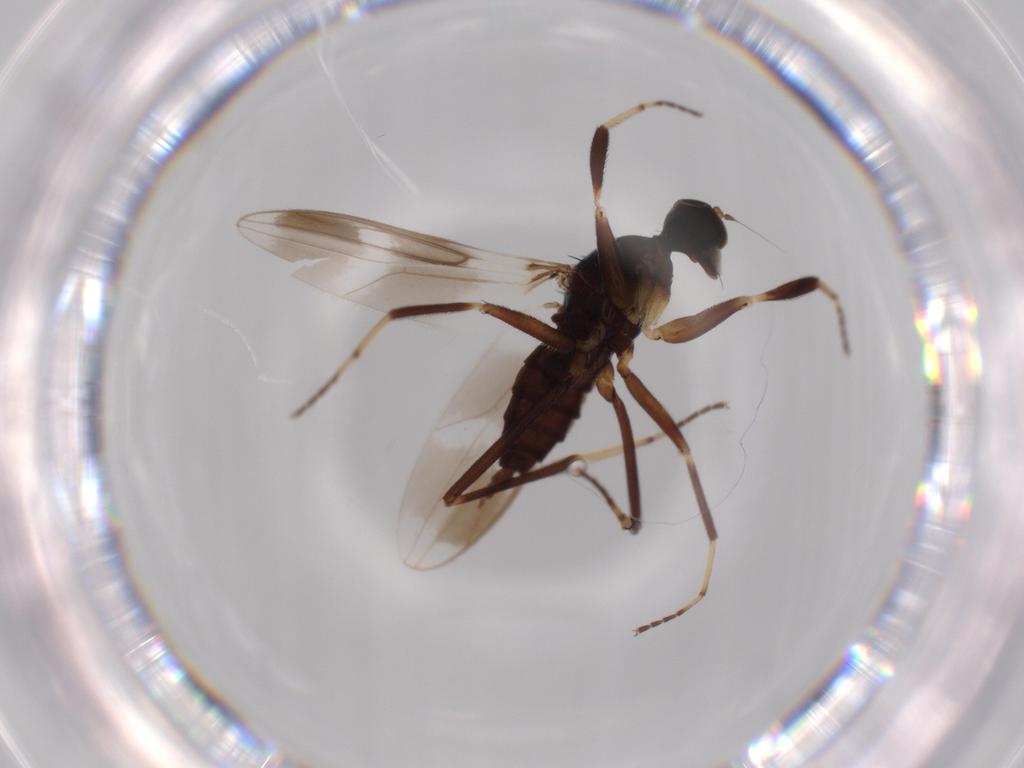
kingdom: Animalia
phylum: Arthropoda
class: Insecta
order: Diptera
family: Hybotidae
